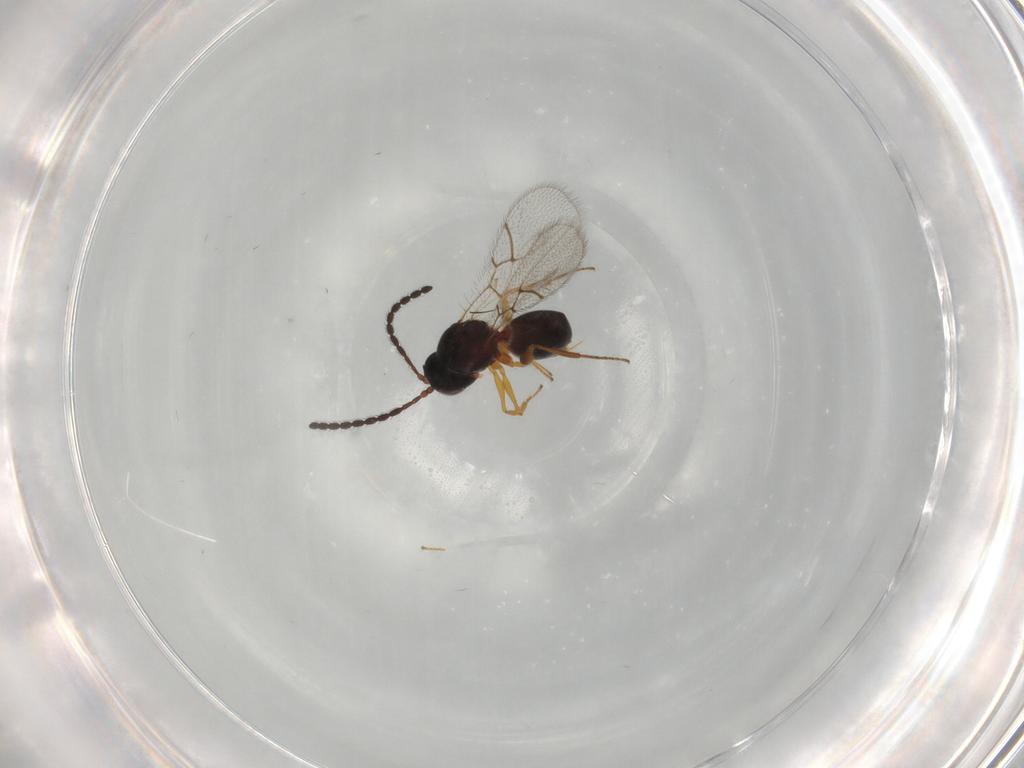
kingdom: Animalia
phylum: Arthropoda
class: Insecta
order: Hymenoptera
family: Figitidae
